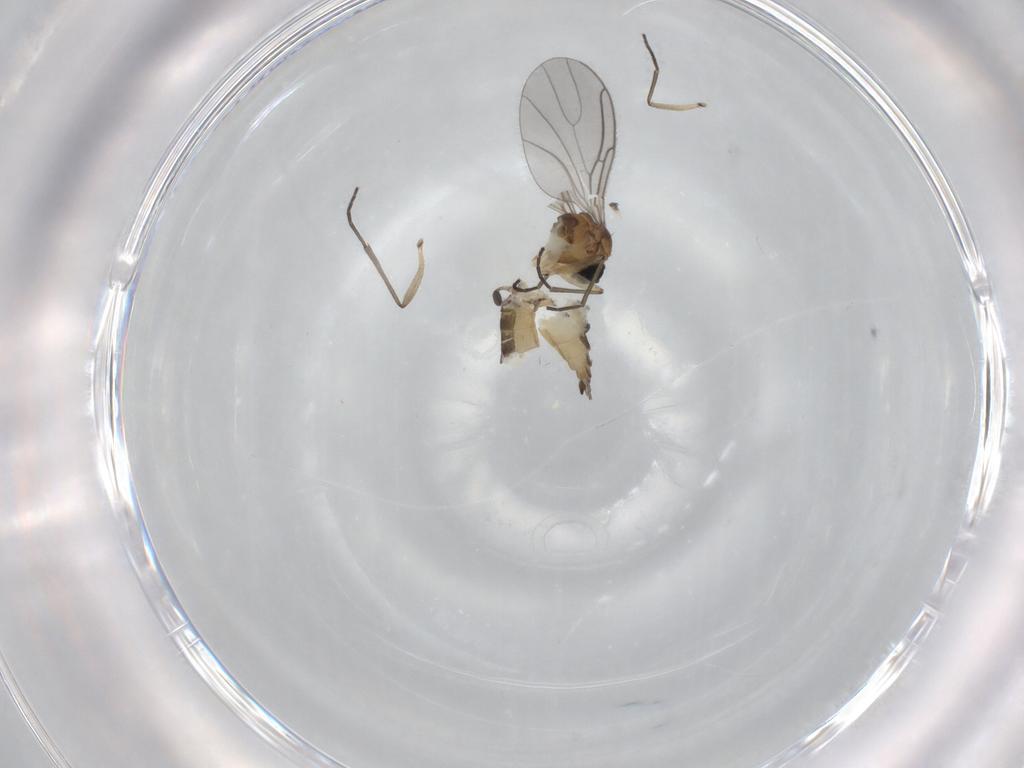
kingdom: Animalia
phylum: Arthropoda
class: Insecta
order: Diptera
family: Sciaridae
